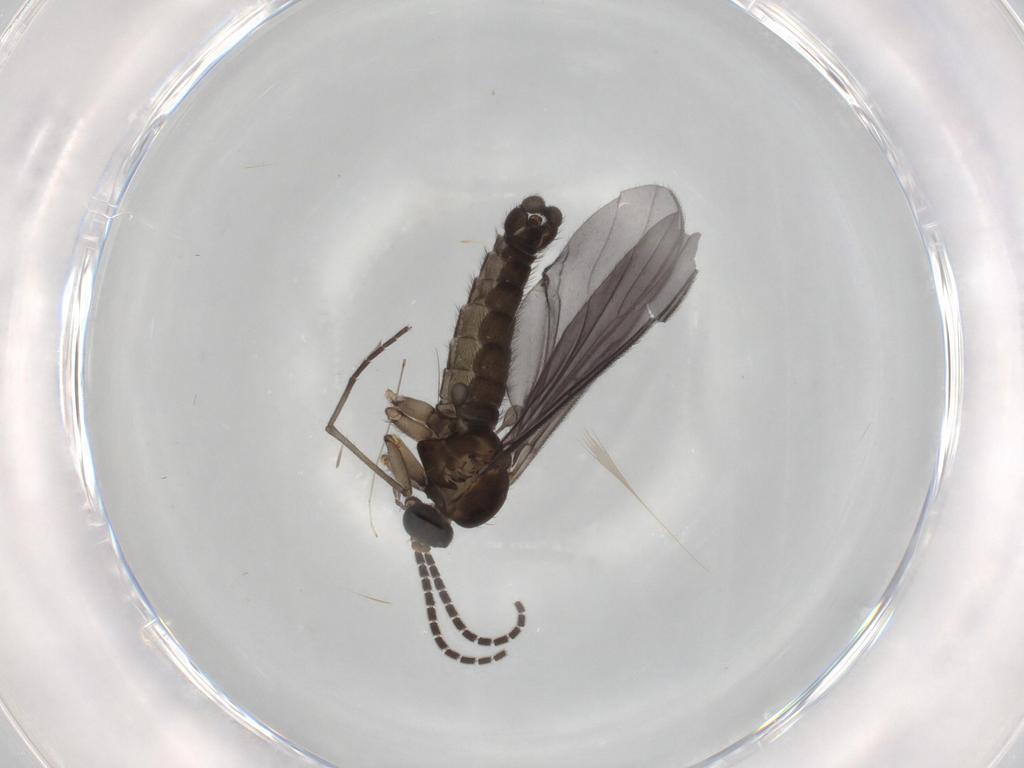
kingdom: Animalia
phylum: Arthropoda
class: Insecta
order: Diptera
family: Sciaridae
